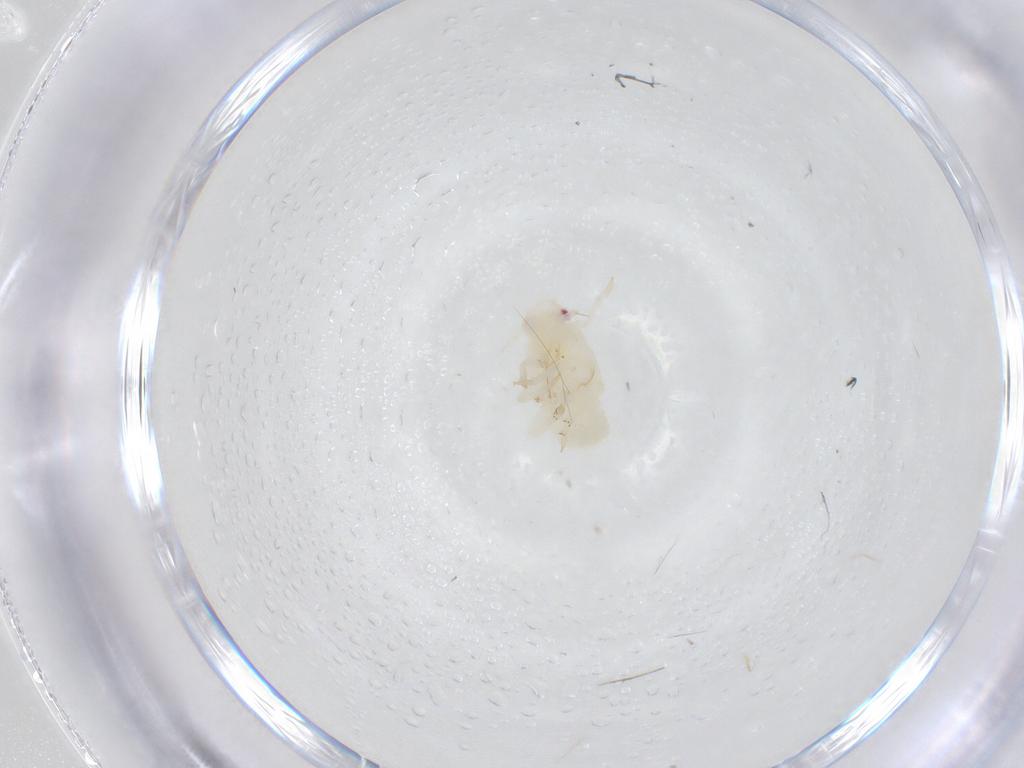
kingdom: Animalia
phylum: Arthropoda
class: Insecta
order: Hemiptera
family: Fulgoroidea_incertae_sedis
